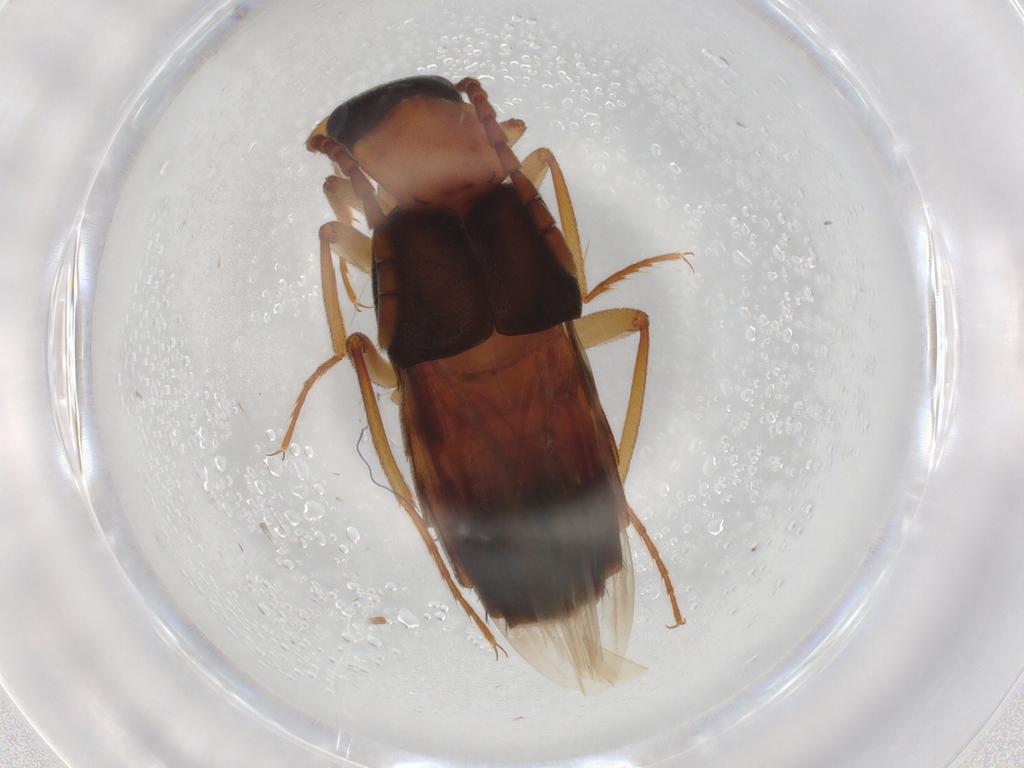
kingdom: Animalia
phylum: Arthropoda
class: Insecta
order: Coleoptera
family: Staphylinidae
